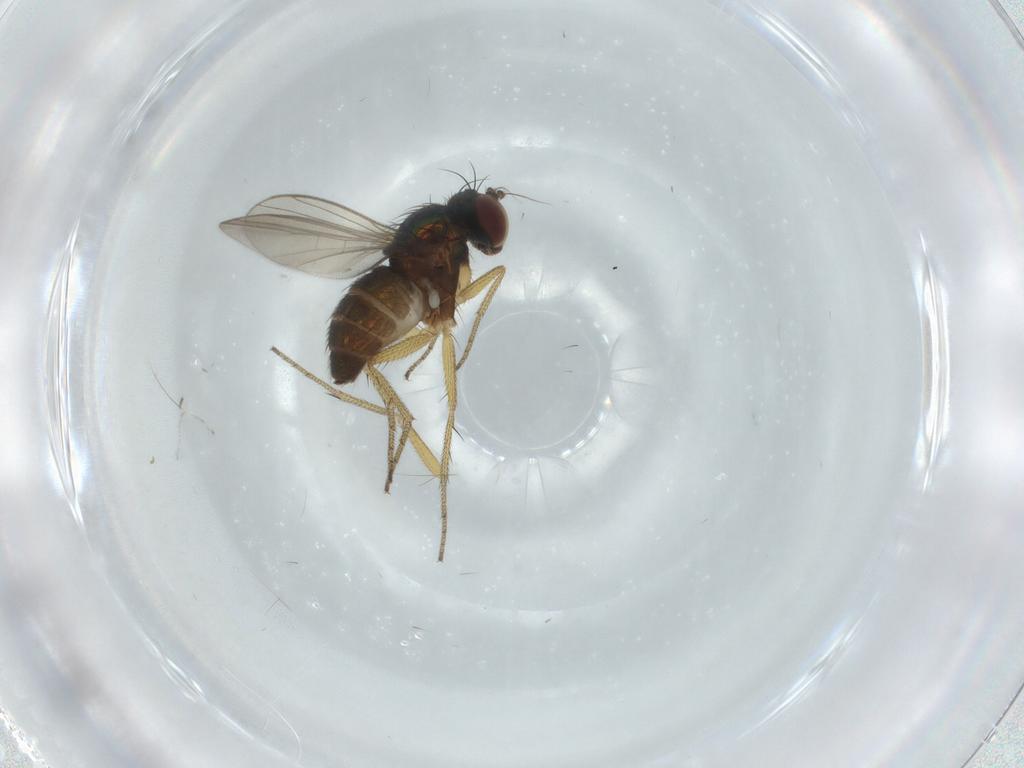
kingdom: Animalia
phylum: Arthropoda
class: Insecta
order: Diptera
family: Dolichopodidae
